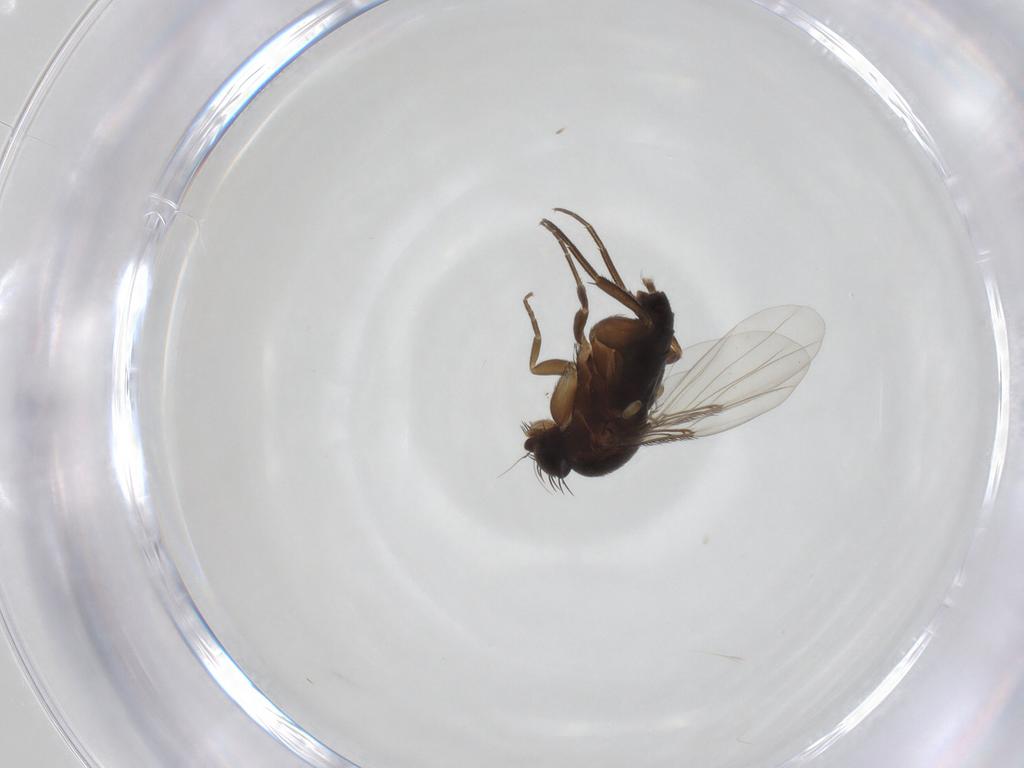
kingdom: Animalia
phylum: Arthropoda
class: Insecta
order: Diptera
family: Phoridae
